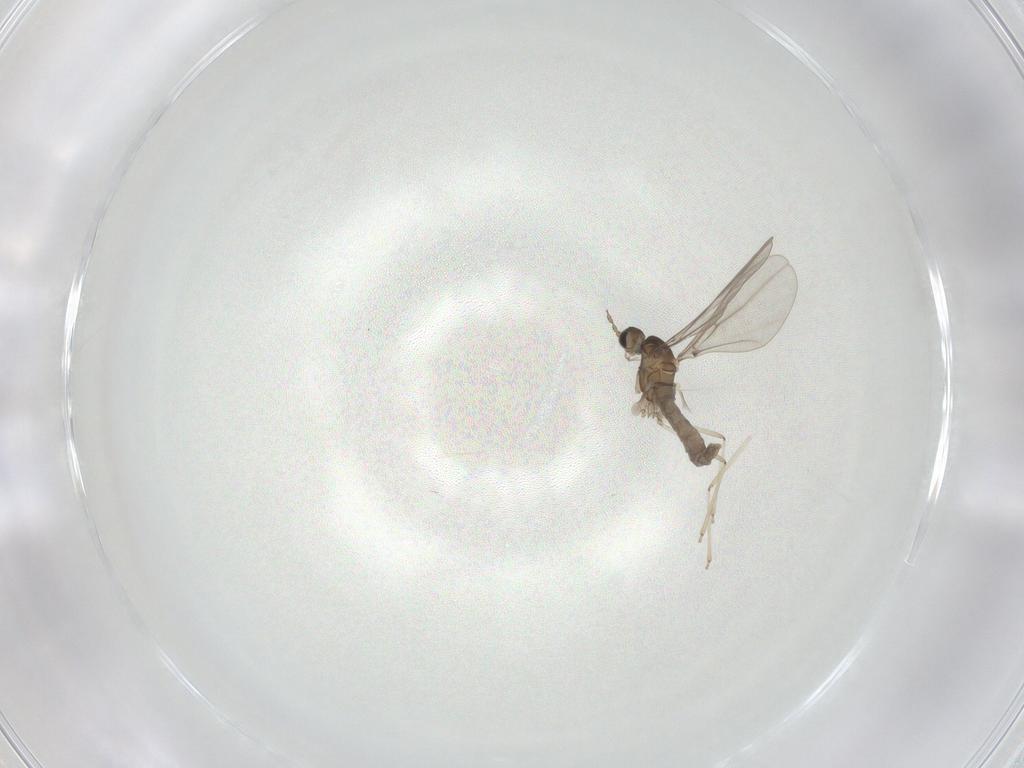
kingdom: Animalia
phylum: Arthropoda
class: Insecta
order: Diptera
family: Cecidomyiidae
